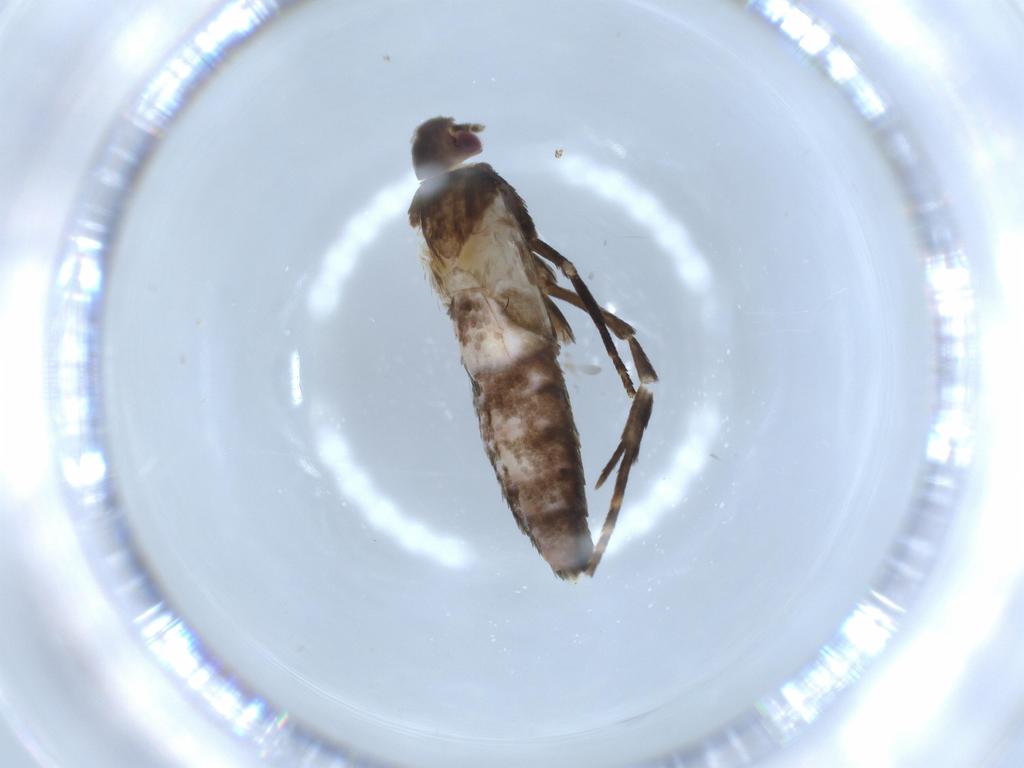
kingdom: Animalia
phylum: Arthropoda
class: Insecta
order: Lepidoptera
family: Gelechiidae
